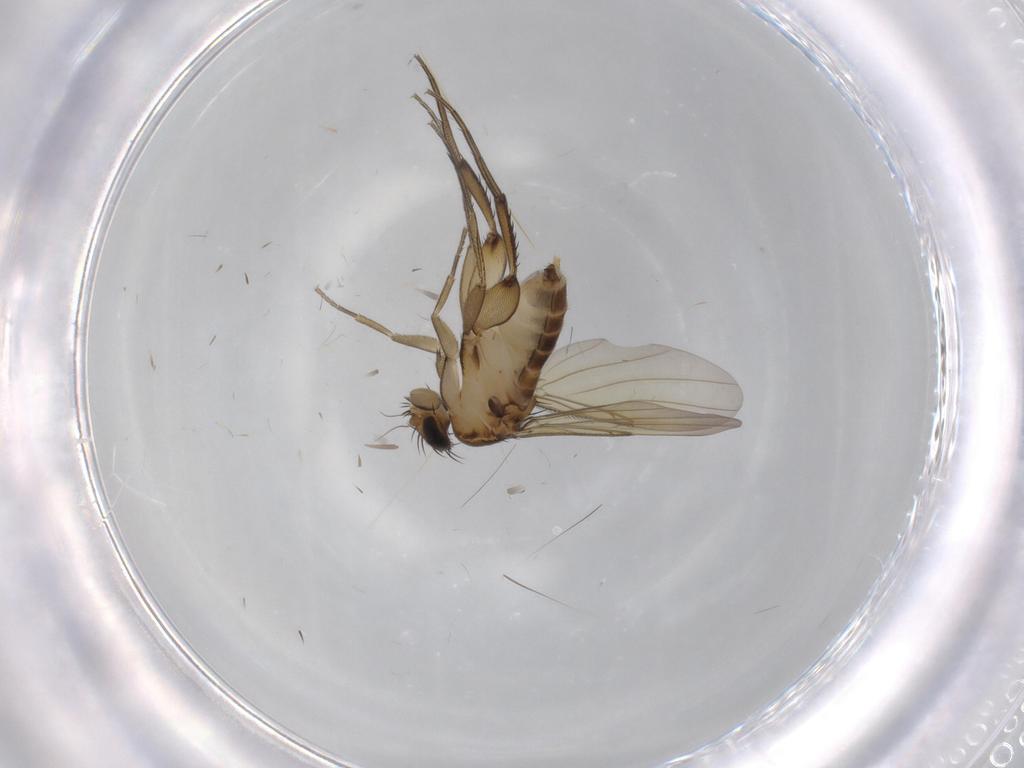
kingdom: Animalia
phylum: Arthropoda
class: Insecta
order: Diptera
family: Phoridae
